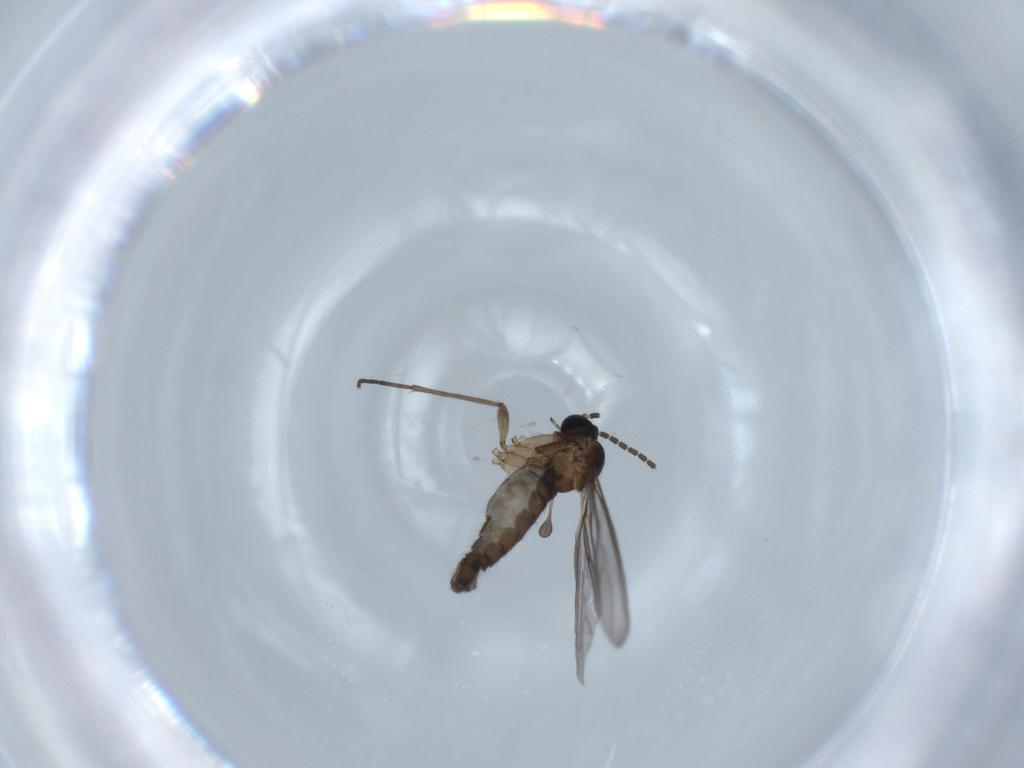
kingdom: Animalia
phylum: Arthropoda
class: Insecta
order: Diptera
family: Sciaridae
